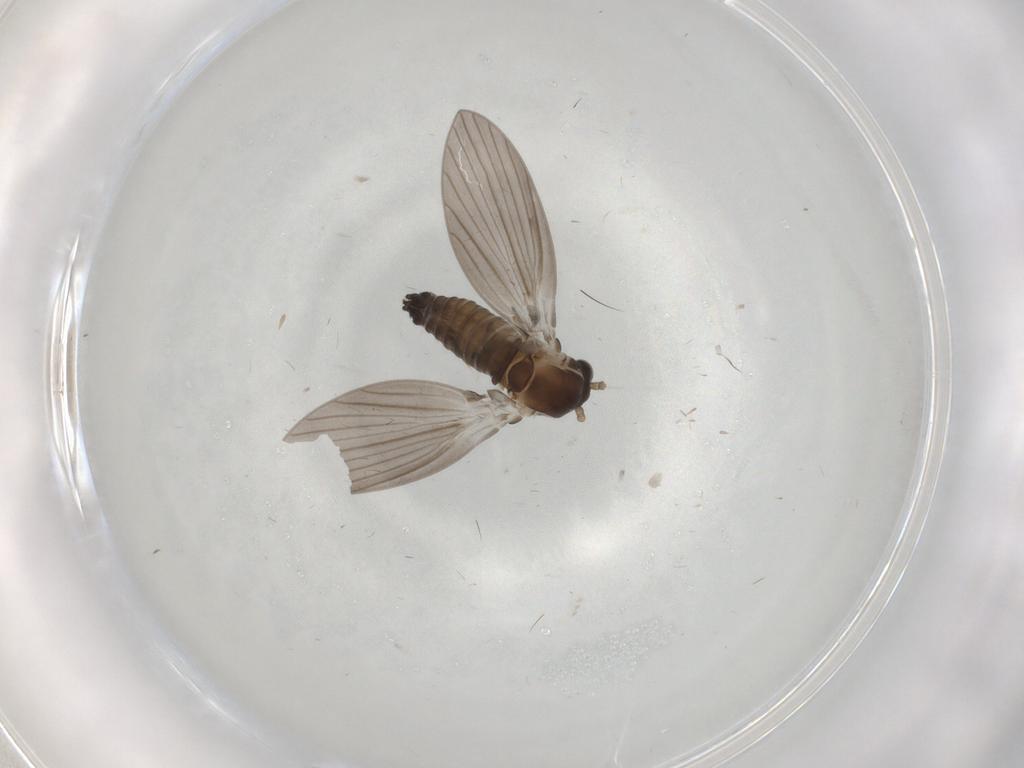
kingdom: Animalia
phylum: Arthropoda
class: Insecta
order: Diptera
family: Psychodidae
